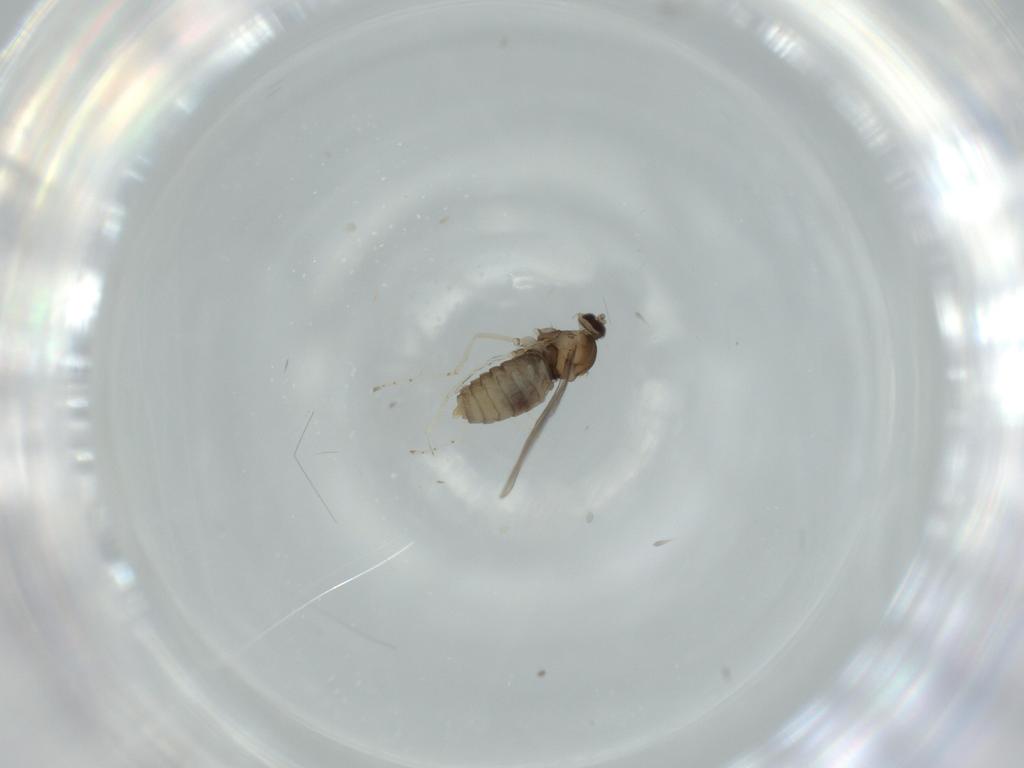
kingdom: Animalia
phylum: Arthropoda
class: Insecta
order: Diptera
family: Cecidomyiidae
